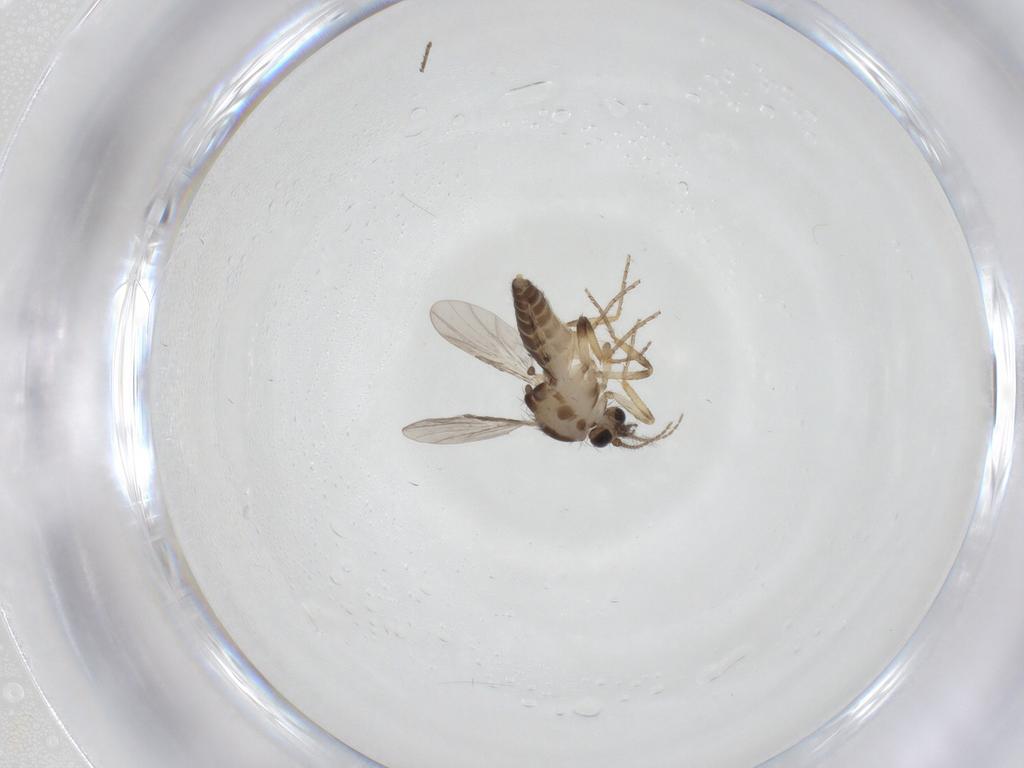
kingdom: Animalia
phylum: Arthropoda
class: Insecta
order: Diptera
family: Phoridae
